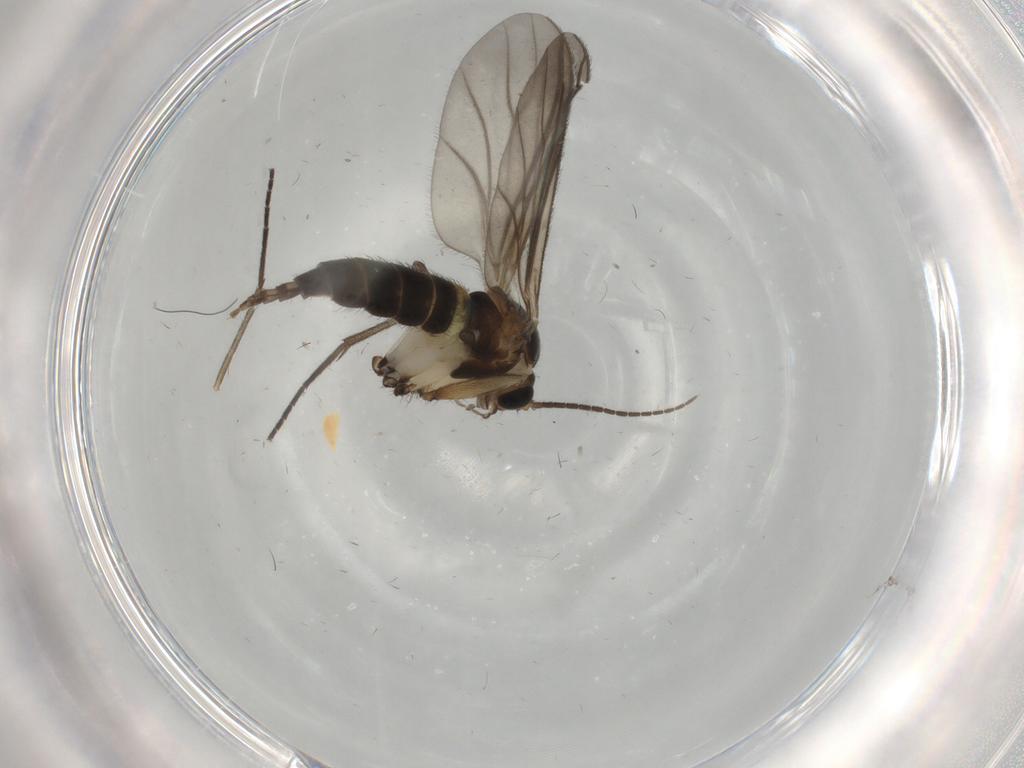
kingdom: Animalia
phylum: Arthropoda
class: Insecta
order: Diptera
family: Sciaridae
